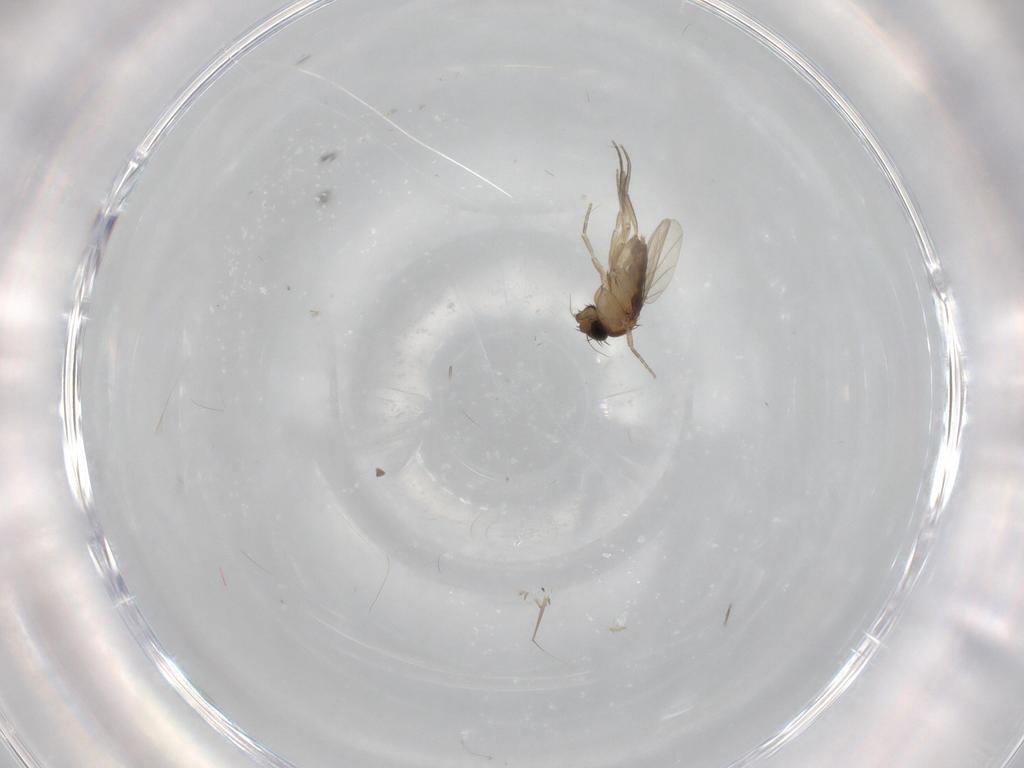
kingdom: Animalia
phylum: Arthropoda
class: Insecta
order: Diptera
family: Phoridae
